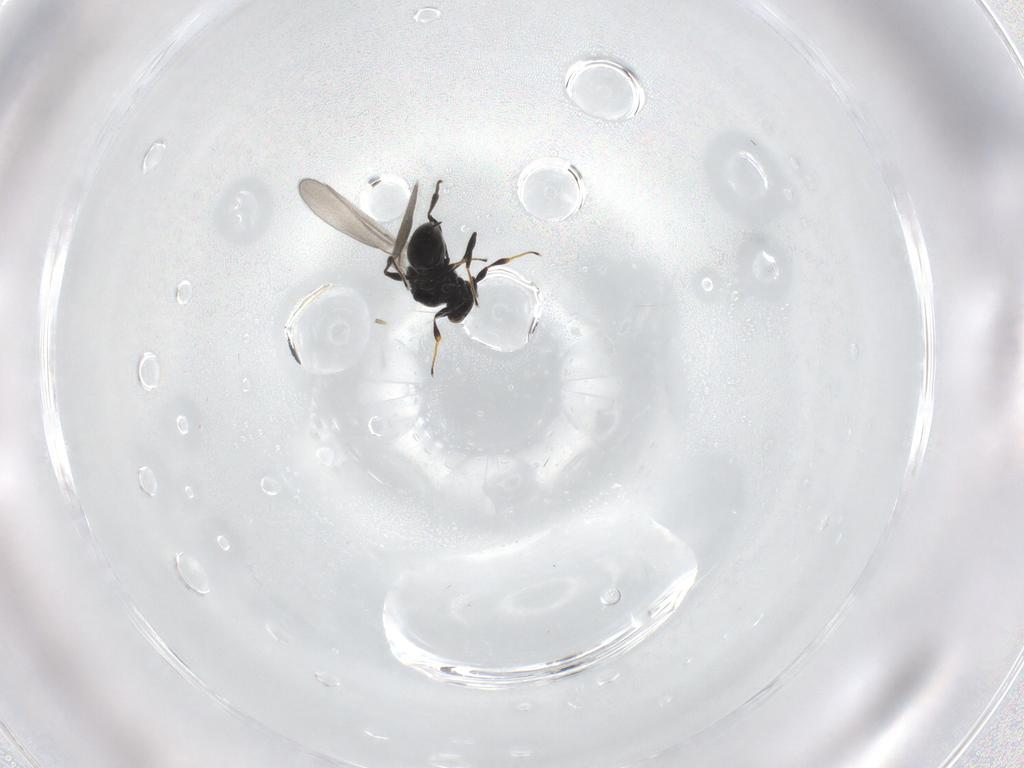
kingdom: Animalia
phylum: Arthropoda
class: Insecta
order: Hymenoptera
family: Platygastridae
